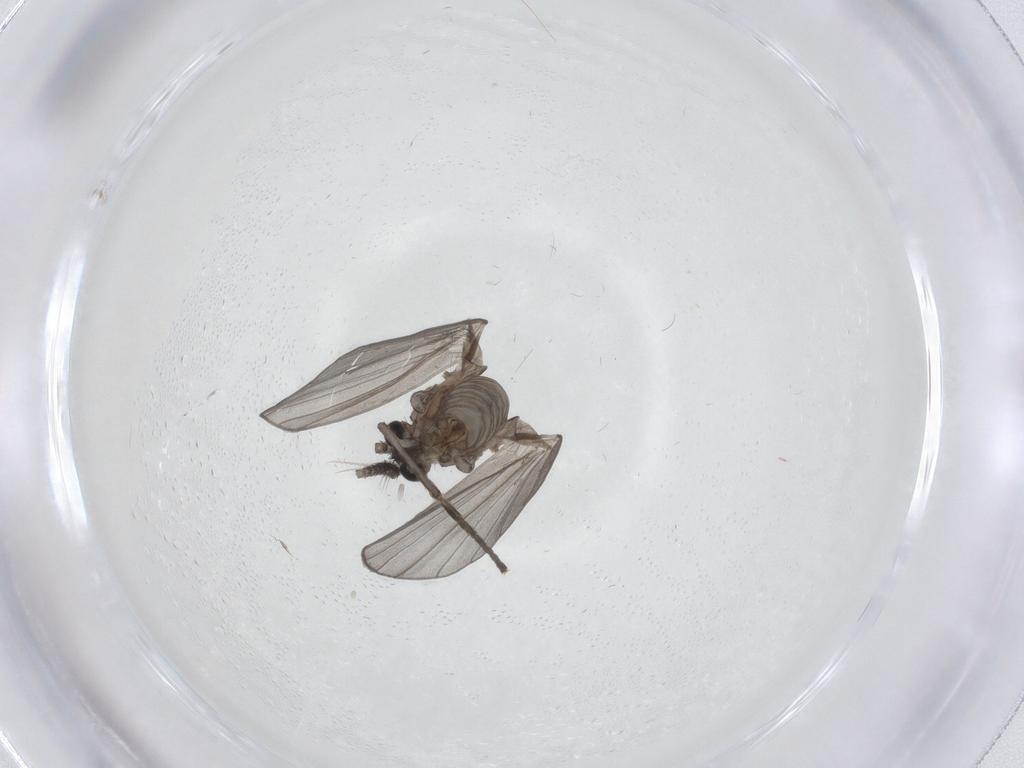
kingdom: Animalia
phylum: Arthropoda
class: Insecta
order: Diptera
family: Psychodidae
